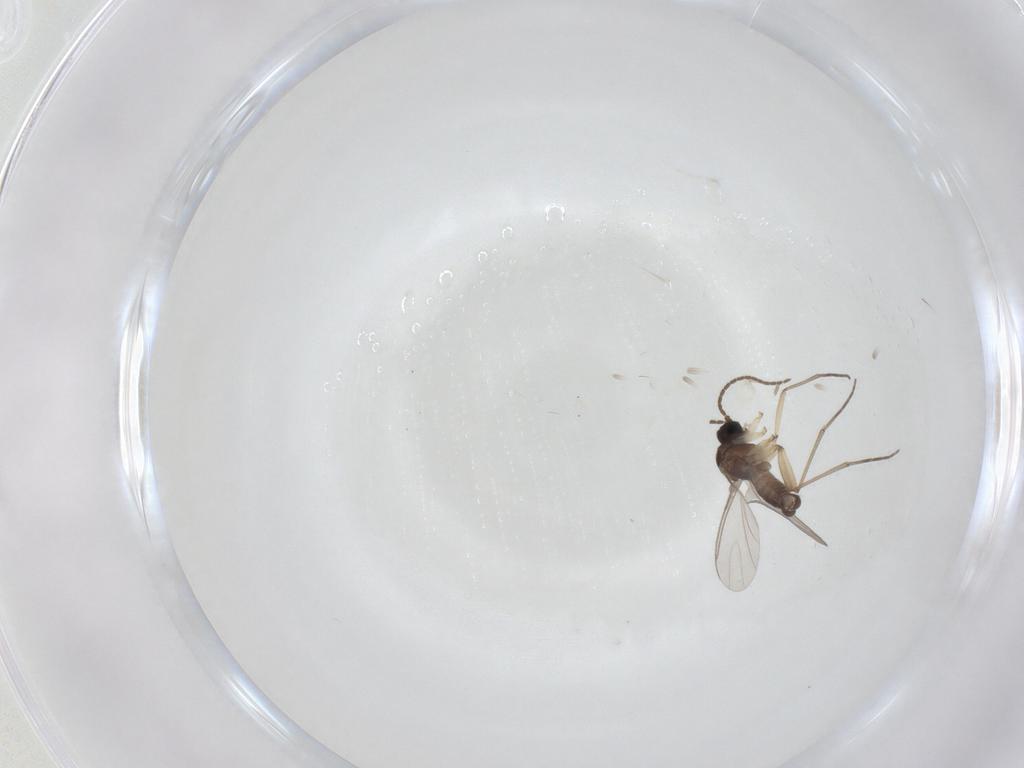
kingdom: Animalia
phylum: Arthropoda
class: Insecta
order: Diptera
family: Sciaridae
